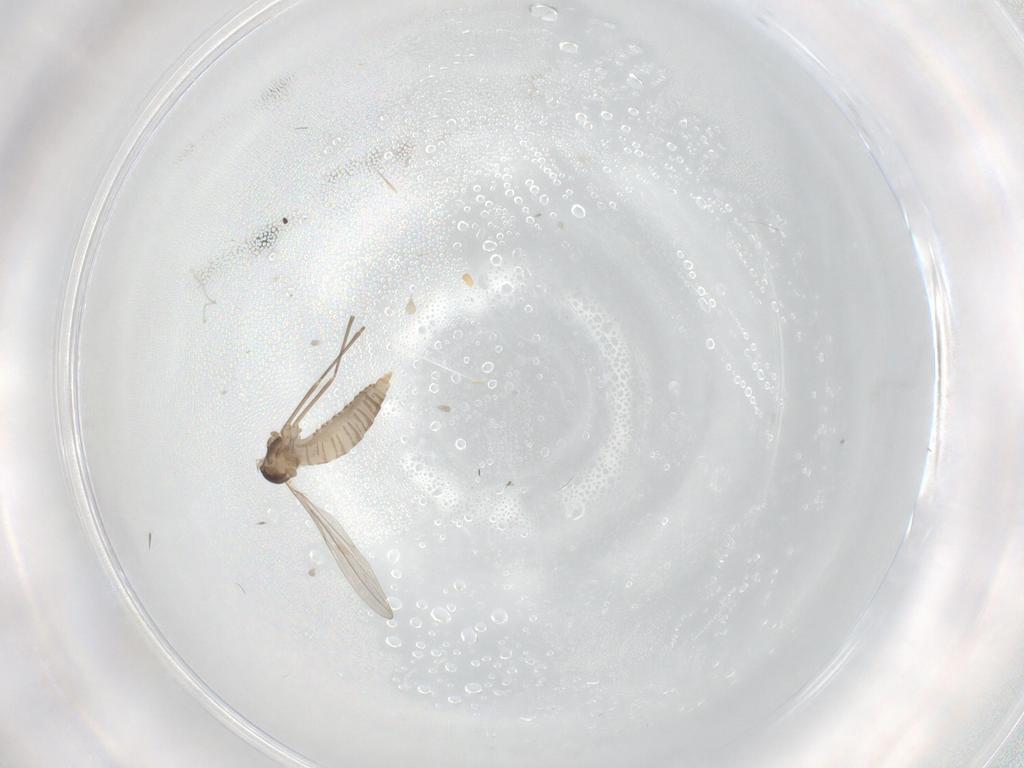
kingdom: Animalia
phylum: Arthropoda
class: Insecta
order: Diptera
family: Cecidomyiidae
